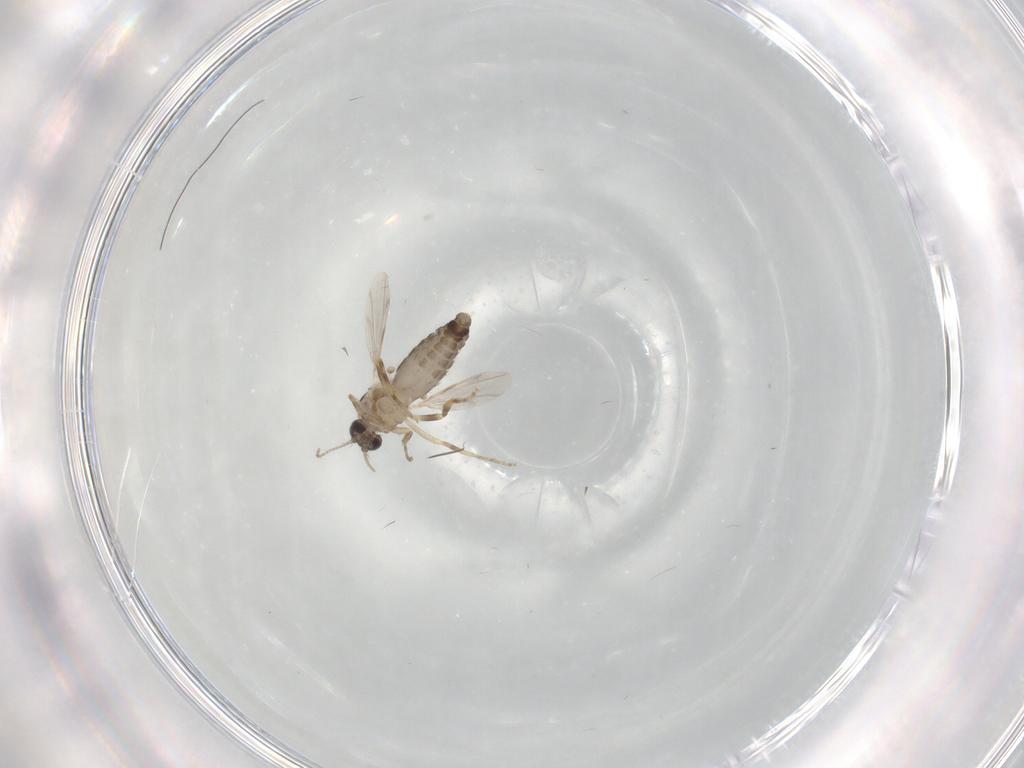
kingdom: Animalia
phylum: Arthropoda
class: Insecta
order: Diptera
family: Ceratopogonidae
